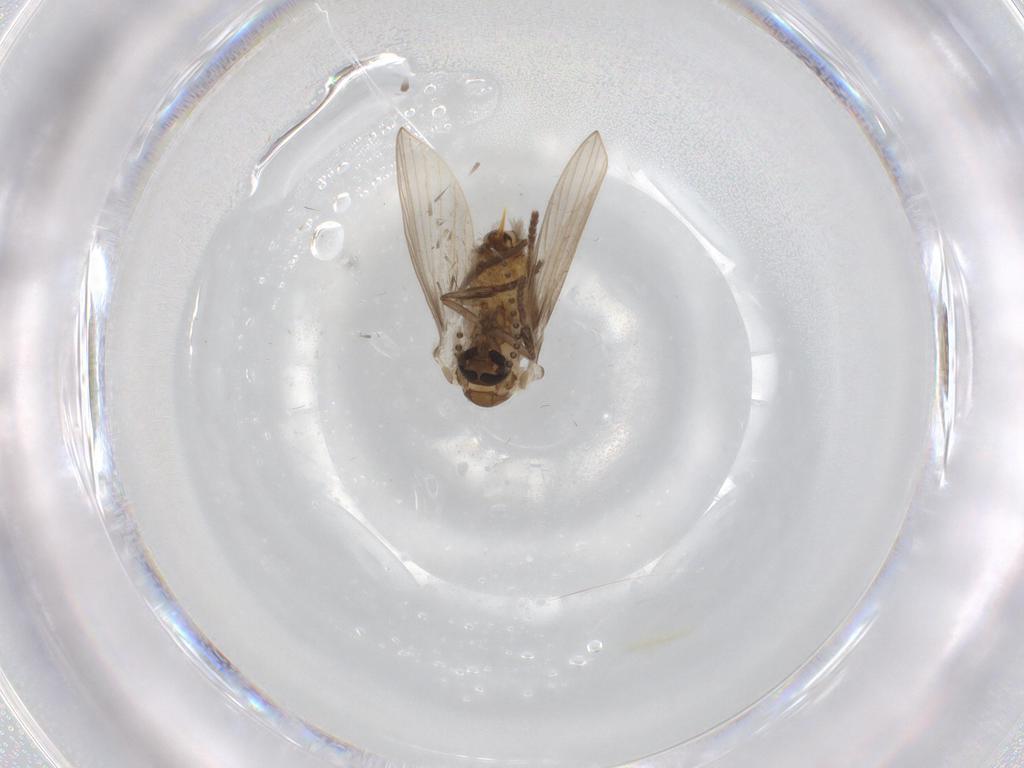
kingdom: Animalia
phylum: Arthropoda
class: Insecta
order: Diptera
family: Psychodidae
